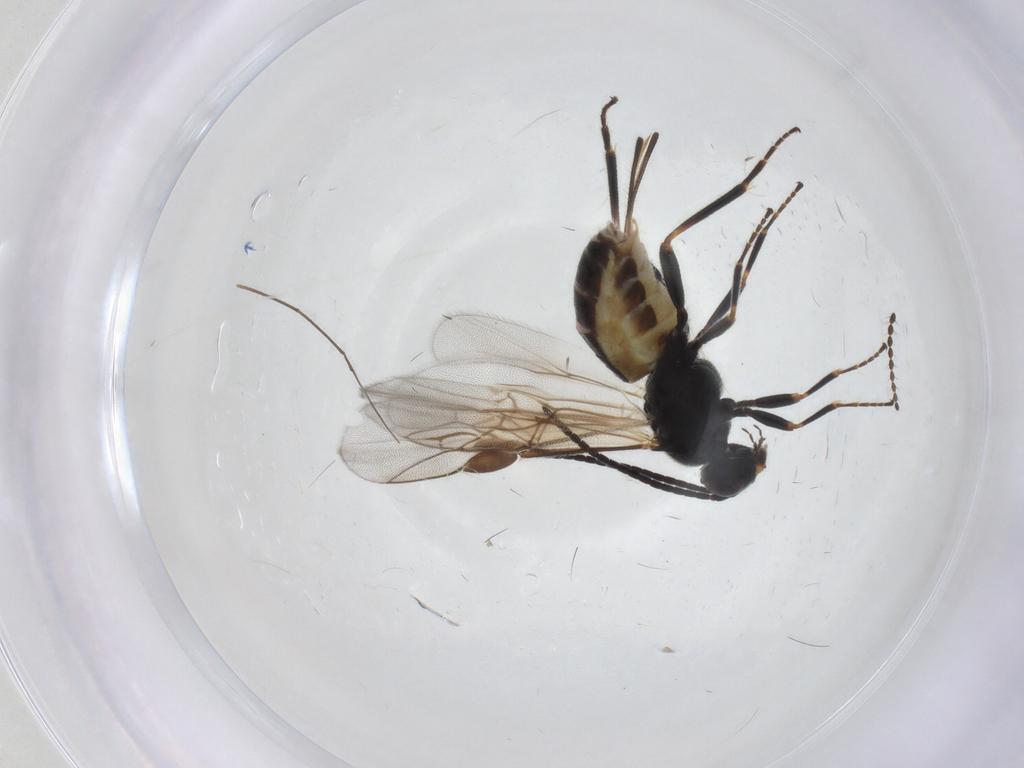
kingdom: Animalia
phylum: Arthropoda
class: Insecta
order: Hymenoptera
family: Braconidae
